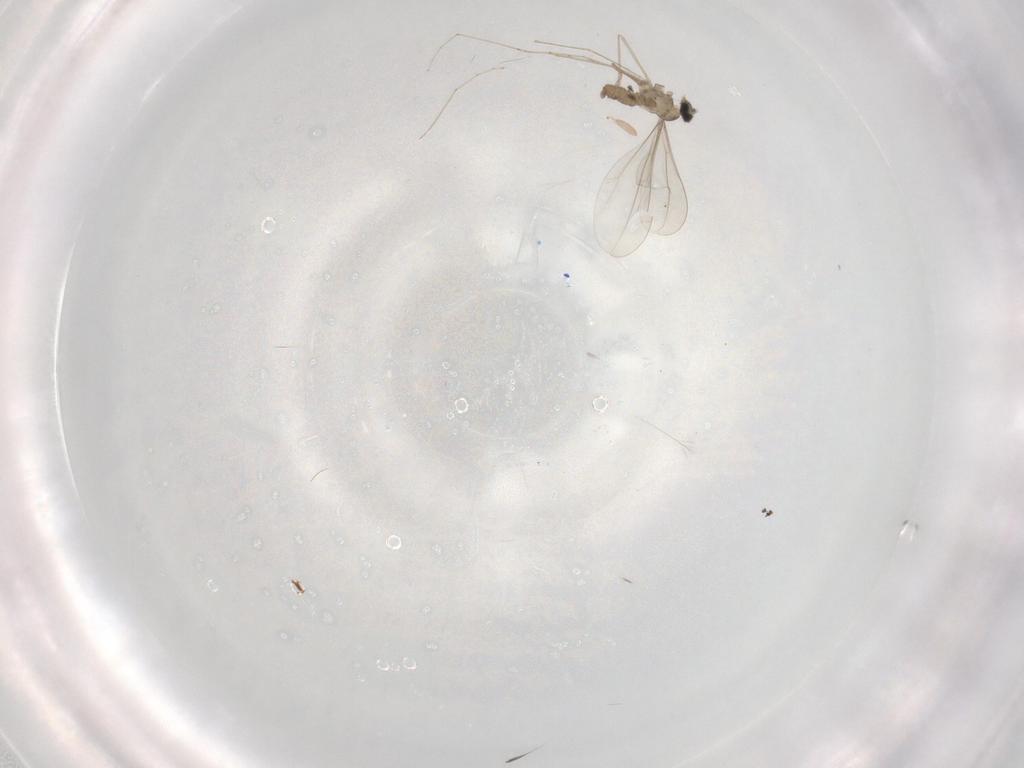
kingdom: Animalia
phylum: Arthropoda
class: Insecta
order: Diptera
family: Cecidomyiidae
